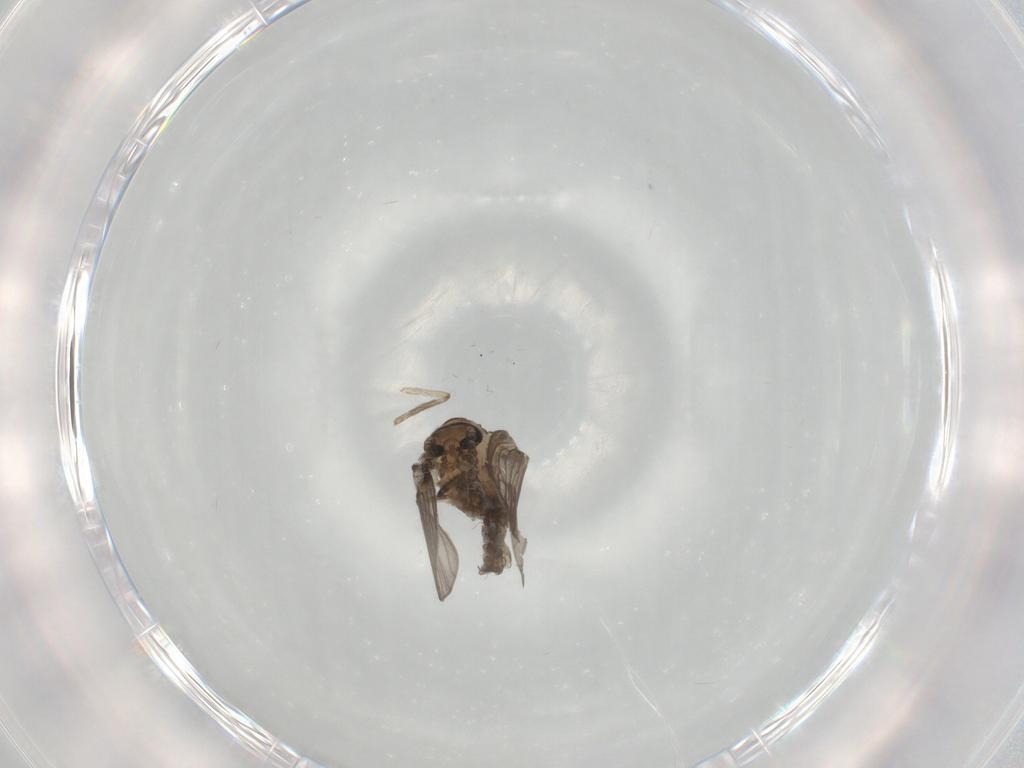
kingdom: Animalia
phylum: Arthropoda
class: Insecta
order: Diptera
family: Psychodidae
